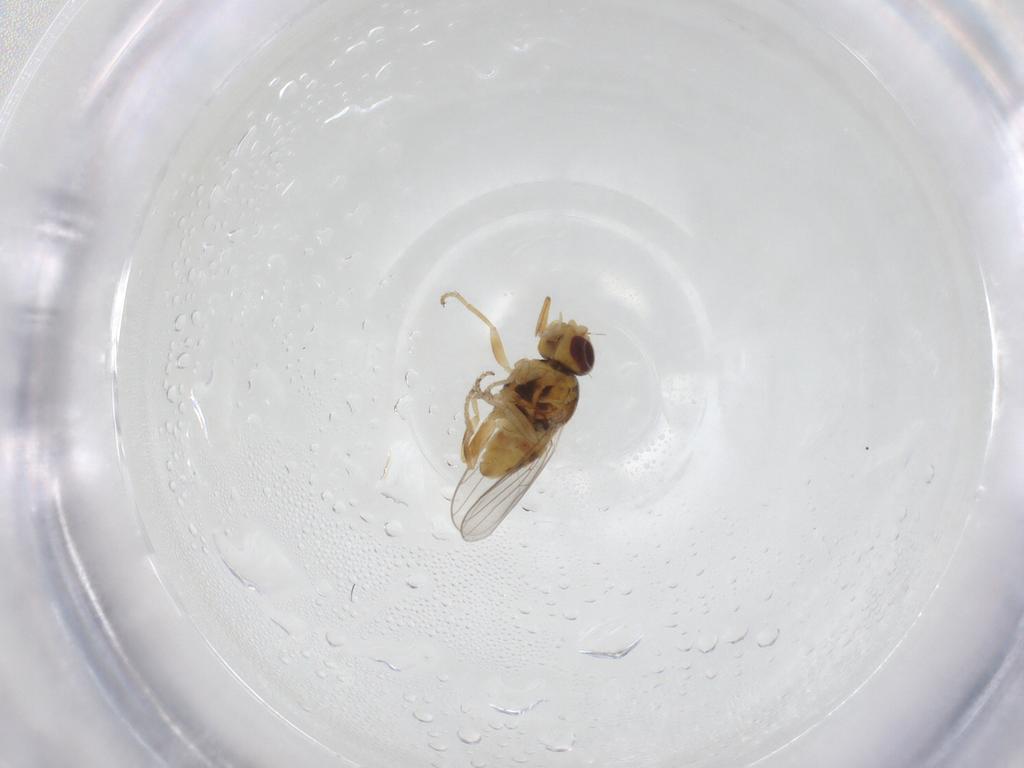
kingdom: Animalia
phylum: Arthropoda
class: Insecta
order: Diptera
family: Chloropidae
